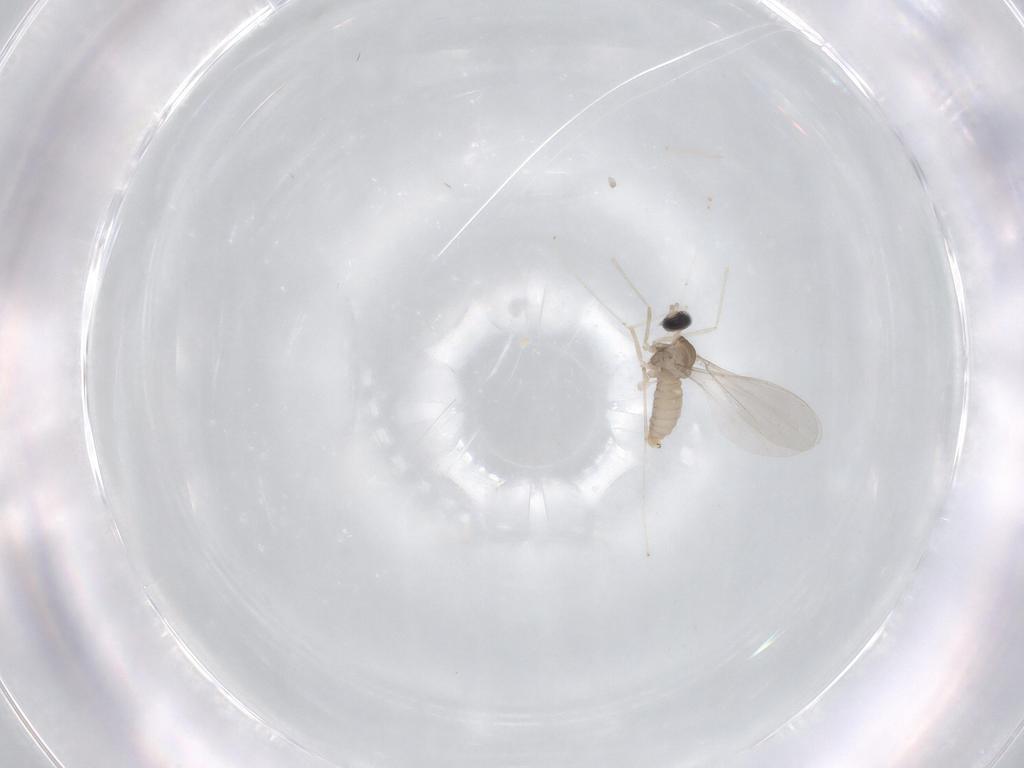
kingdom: Animalia
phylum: Arthropoda
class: Insecta
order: Diptera
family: Cecidomyiidae
